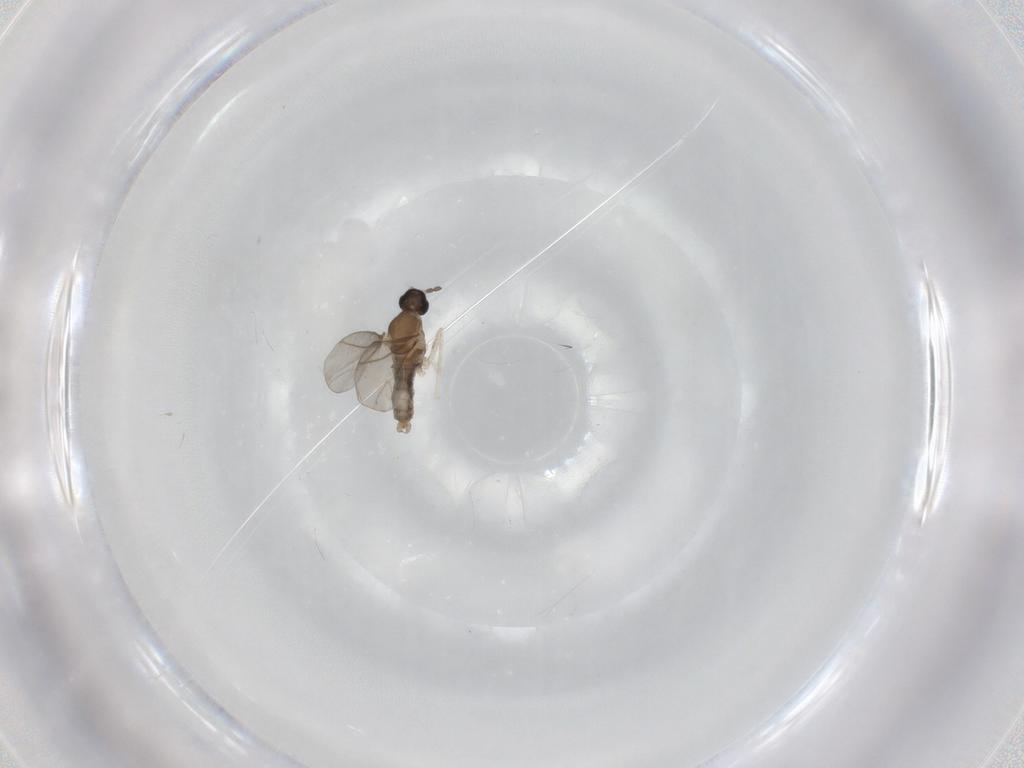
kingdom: Animalia
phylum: Arthropoda
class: Insecta
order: Diptera
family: Cecidomyiidae
